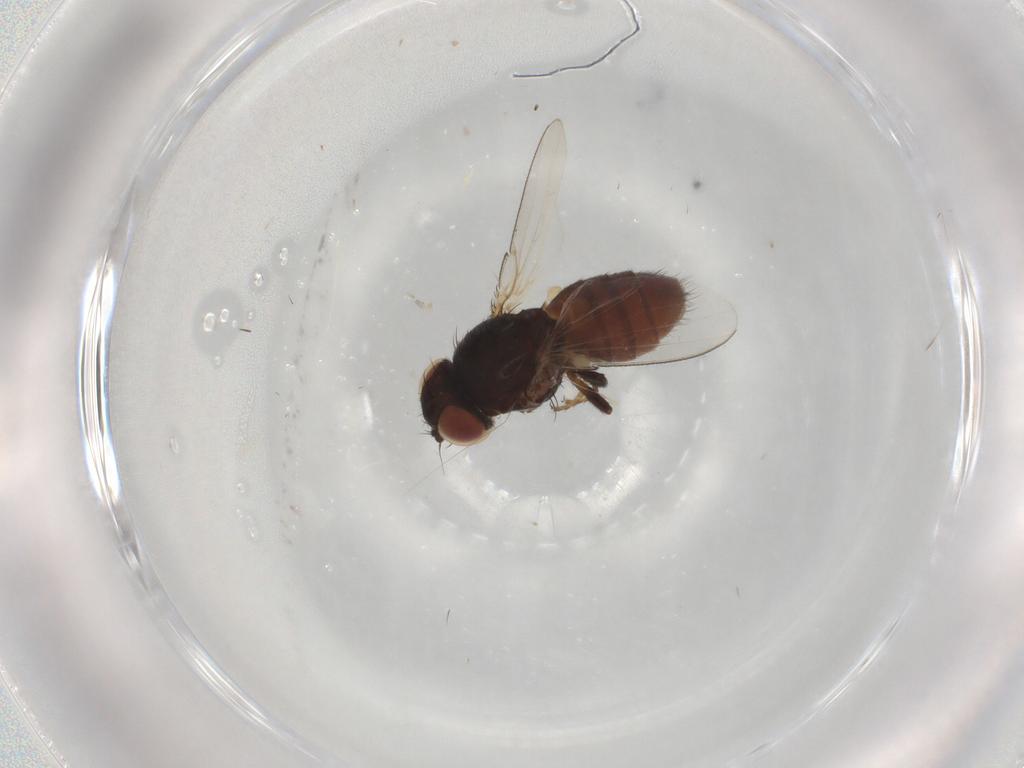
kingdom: Animalia
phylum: Arthropoda
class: Insecta
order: Diptera
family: Milichiidae
